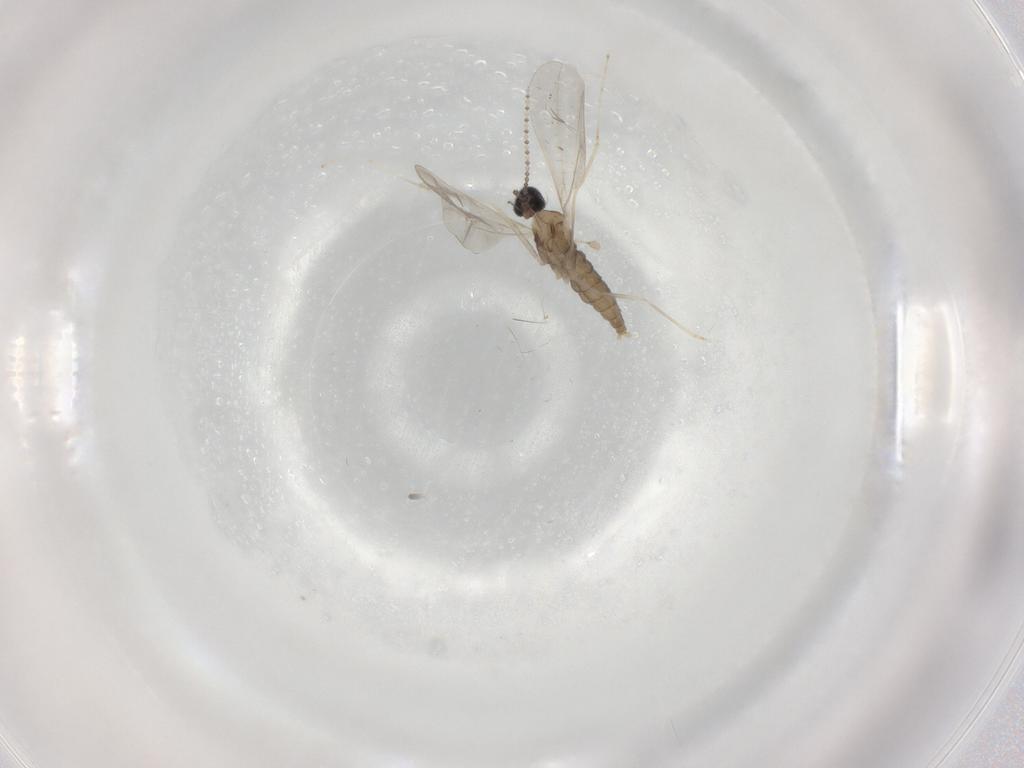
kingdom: Animalia
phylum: Arthropoda
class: Insecta
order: Diptera
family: Cecidomyiidae
